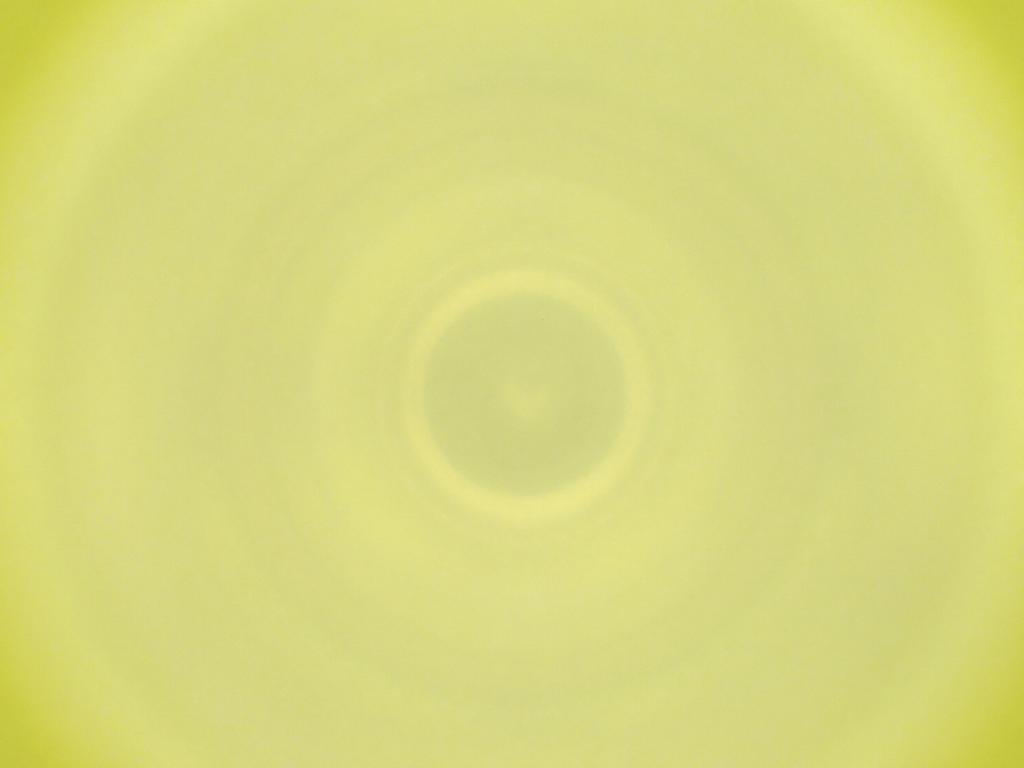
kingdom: Animalia
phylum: Arthropoda
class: Insecta
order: Diptera
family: Cecidomyiidae
